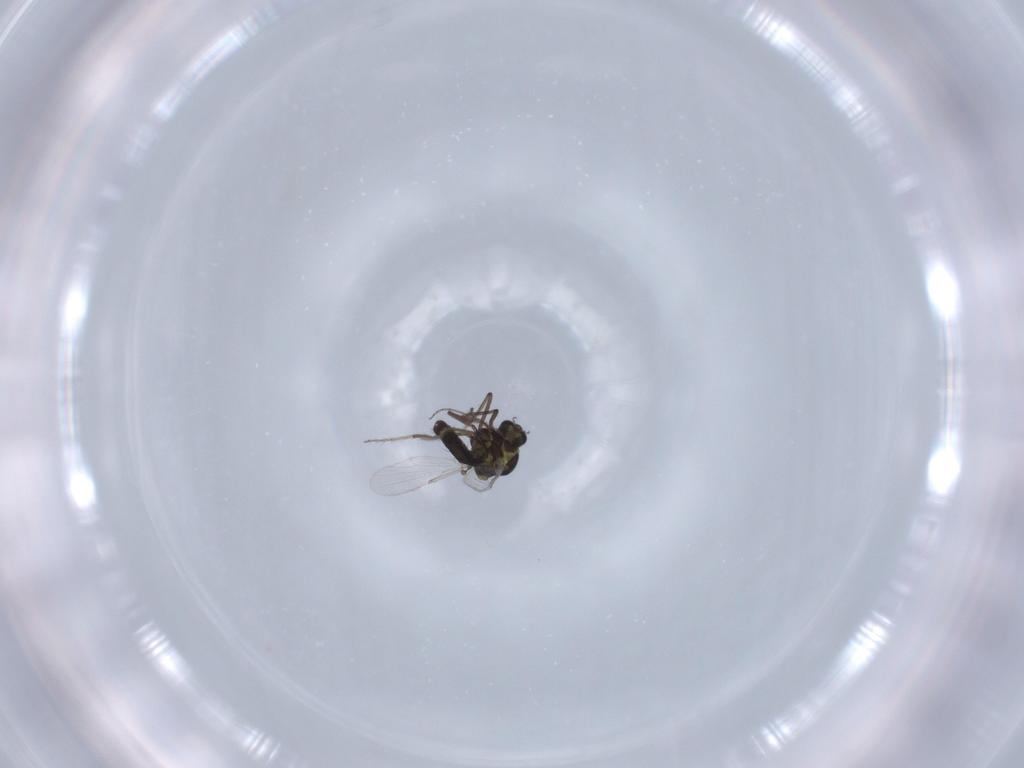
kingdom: Animalia
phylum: Arthropoda
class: Insecta
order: Diptera
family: Ceratopogonidae
